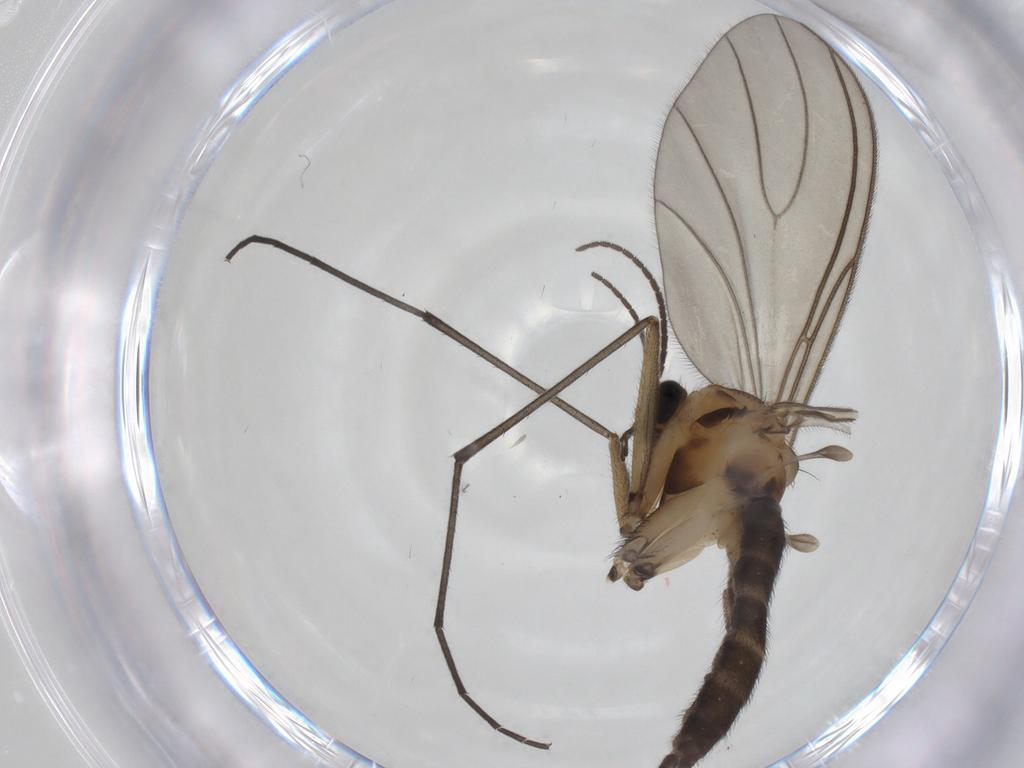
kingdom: Animalia
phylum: Arthropoda
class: Insecta
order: Diptera
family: Sciaridae
